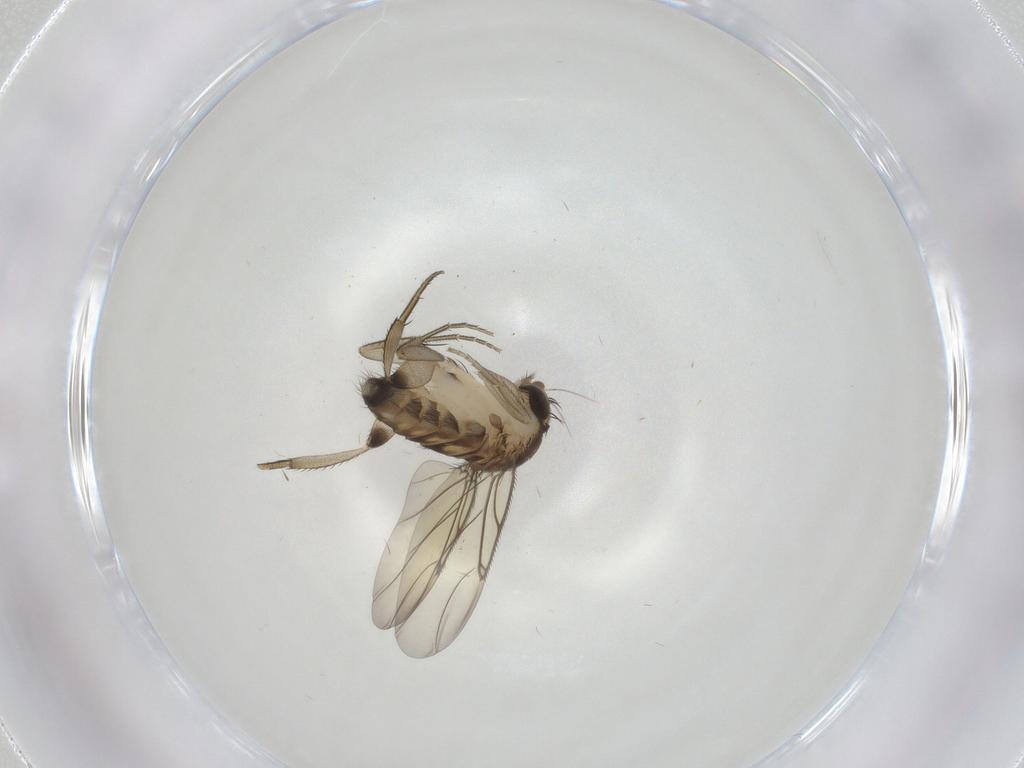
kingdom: Animalia
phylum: Arthropoda
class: Insecta
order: Diptera
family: Phoridae
